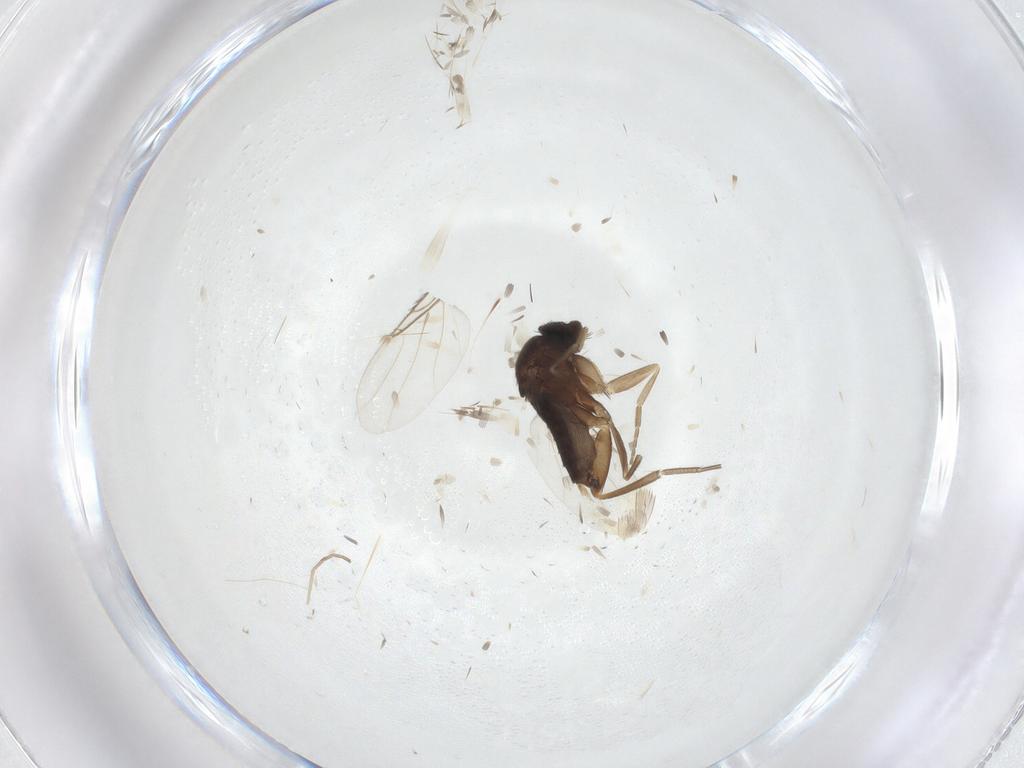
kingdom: Animalia
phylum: Arthropoda
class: Insecta
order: Diptera
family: Phoridae
